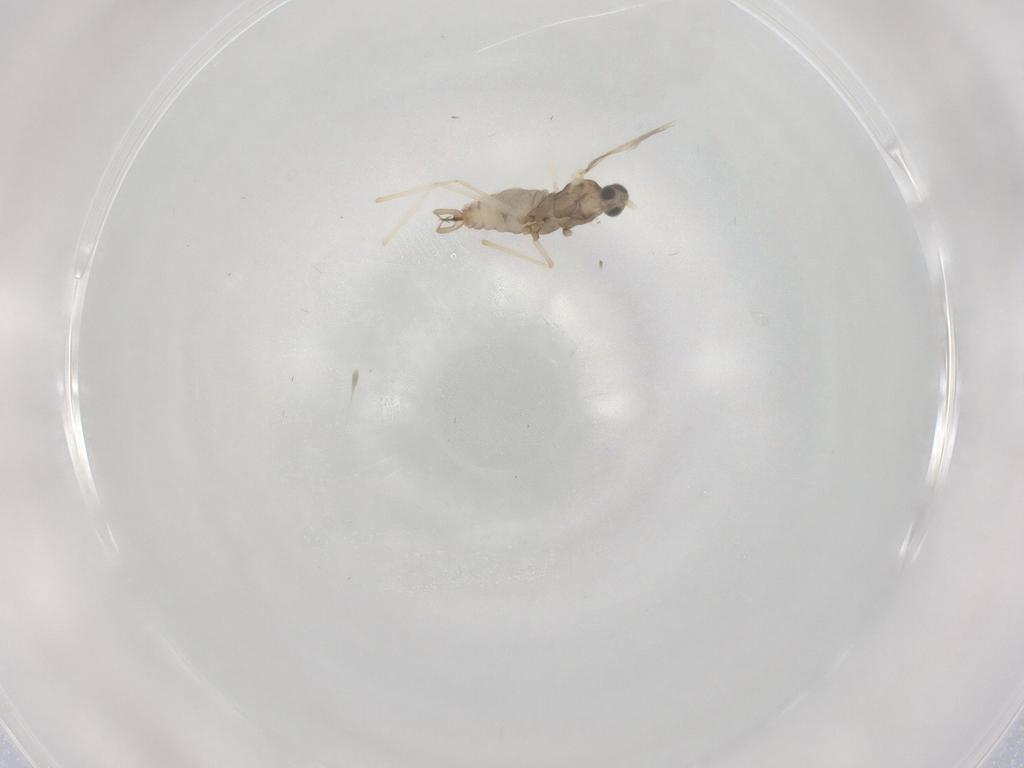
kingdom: Animalia
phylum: Arthropoda
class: Insecta
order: Diptera
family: Cecidomyiidae
